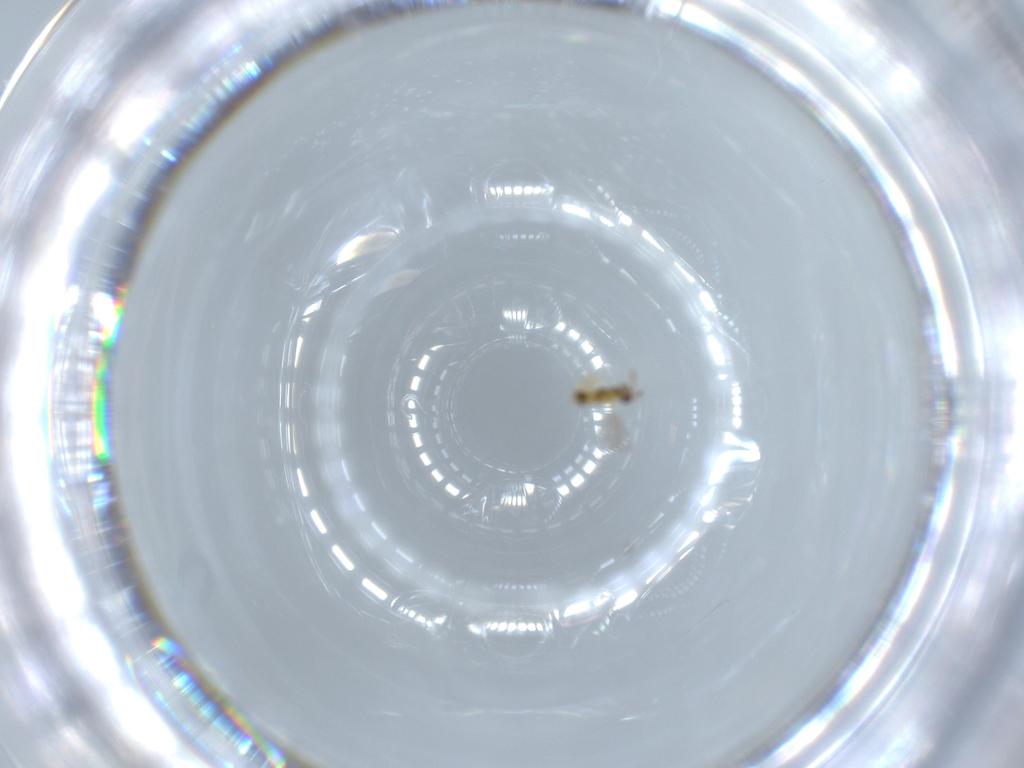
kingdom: Animalia
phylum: Arthropoda
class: Insecta
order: Hymenoptera
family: Aphelinidae
